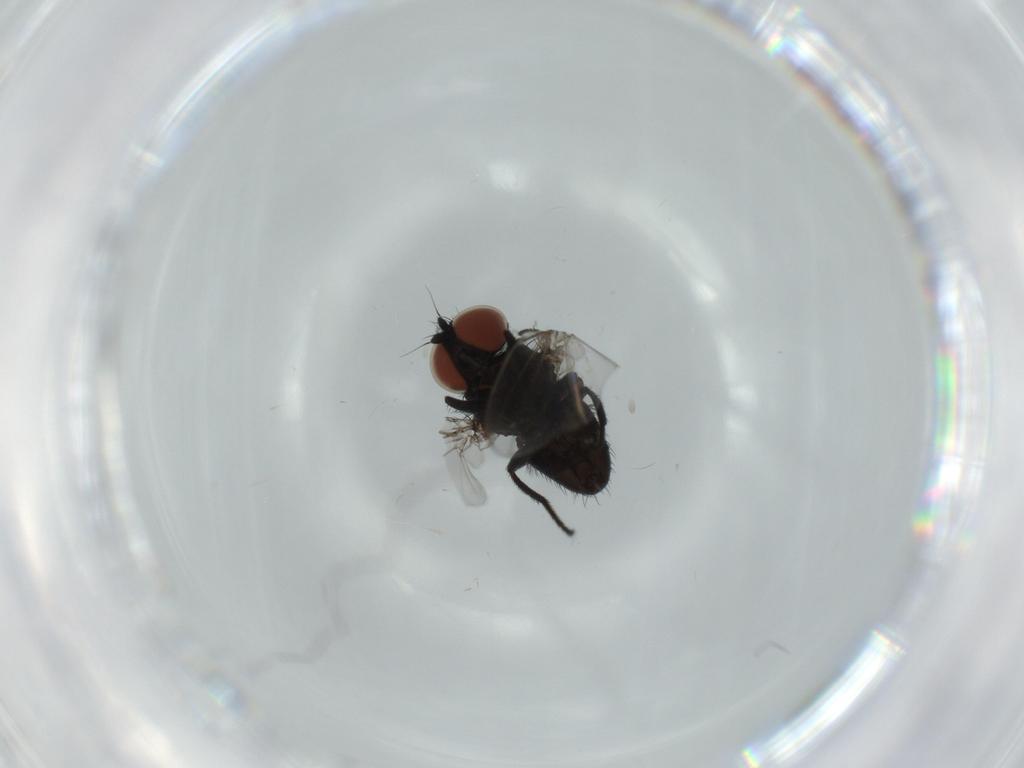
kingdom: Animalia
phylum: Arthropoda
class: Insecta
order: Diptera
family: Milichiidae
